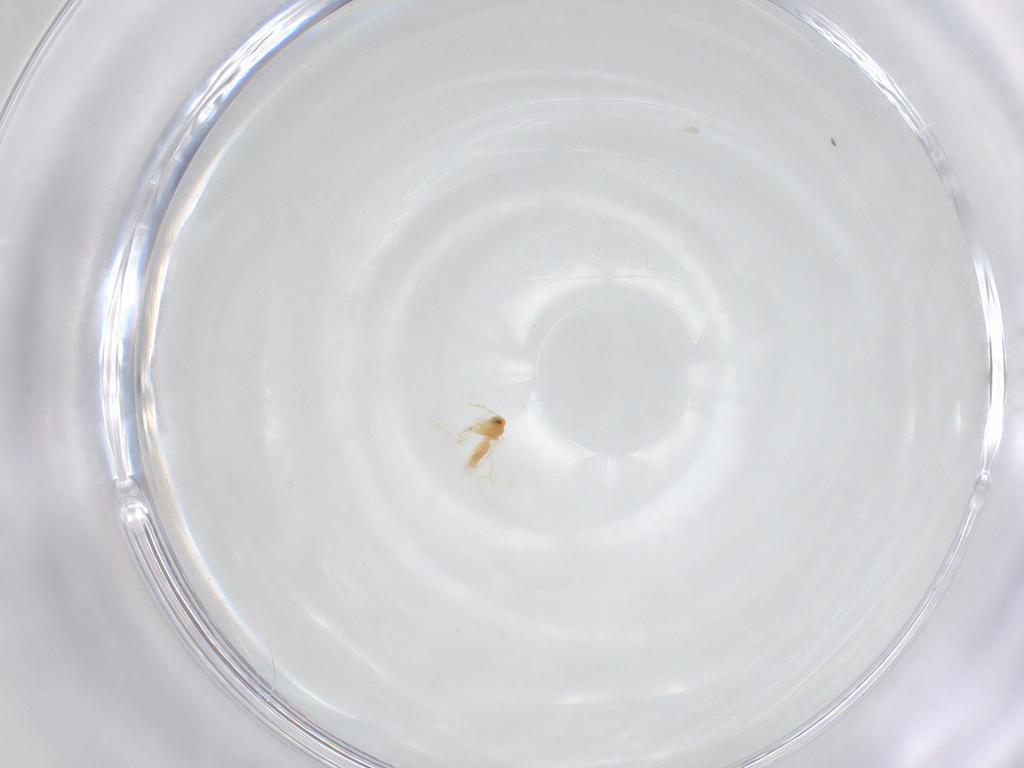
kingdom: Animalia
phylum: Arthropoda
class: Insecta
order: Hemiptera
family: Aleyrodidae
